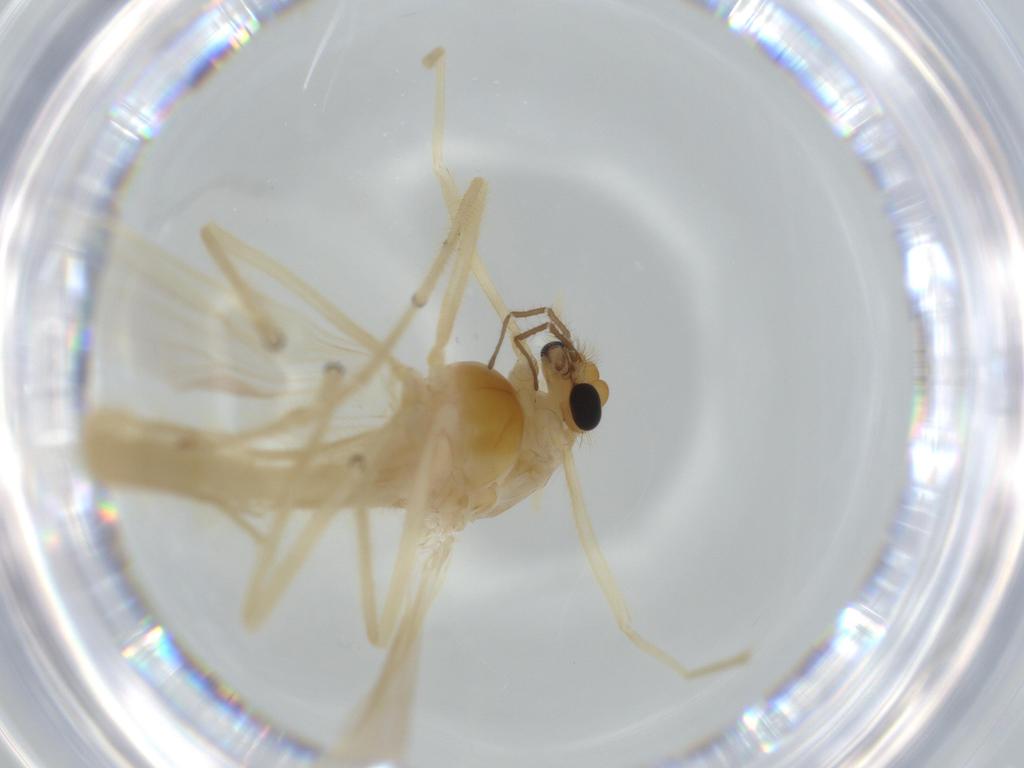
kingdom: Animalia
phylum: Arthropoda
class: Insecta
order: Diptera
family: Chironomidae
